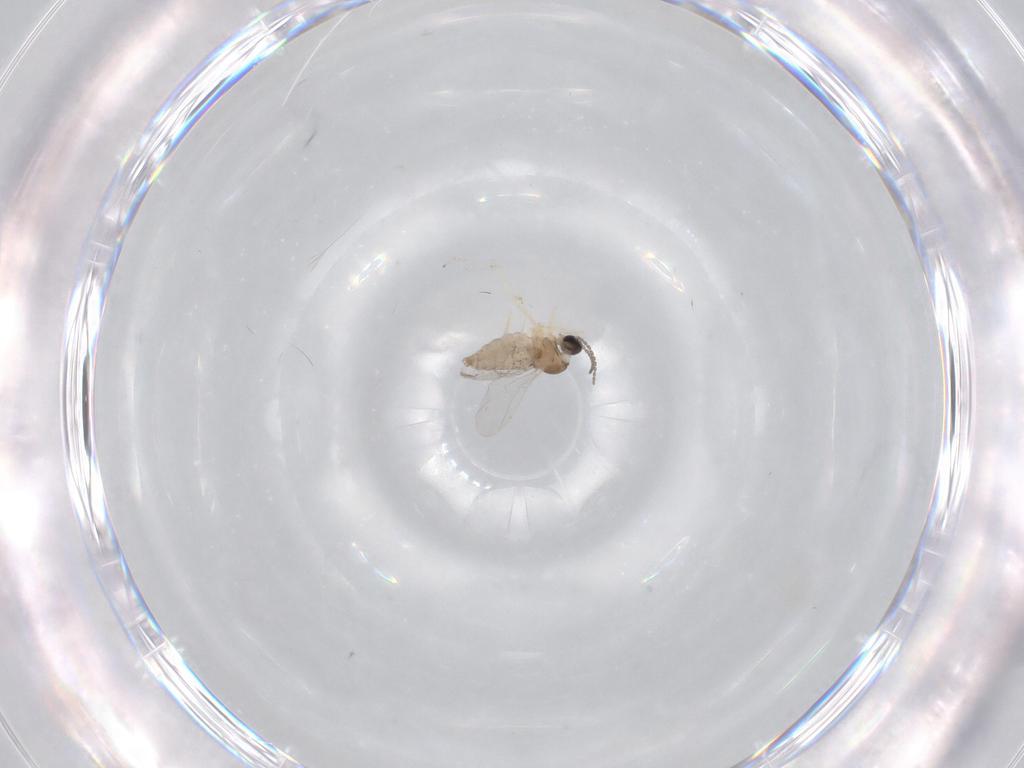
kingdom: Animalia
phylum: Arthropoda
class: Insecta
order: Diptera
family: Cecidomyiidae
